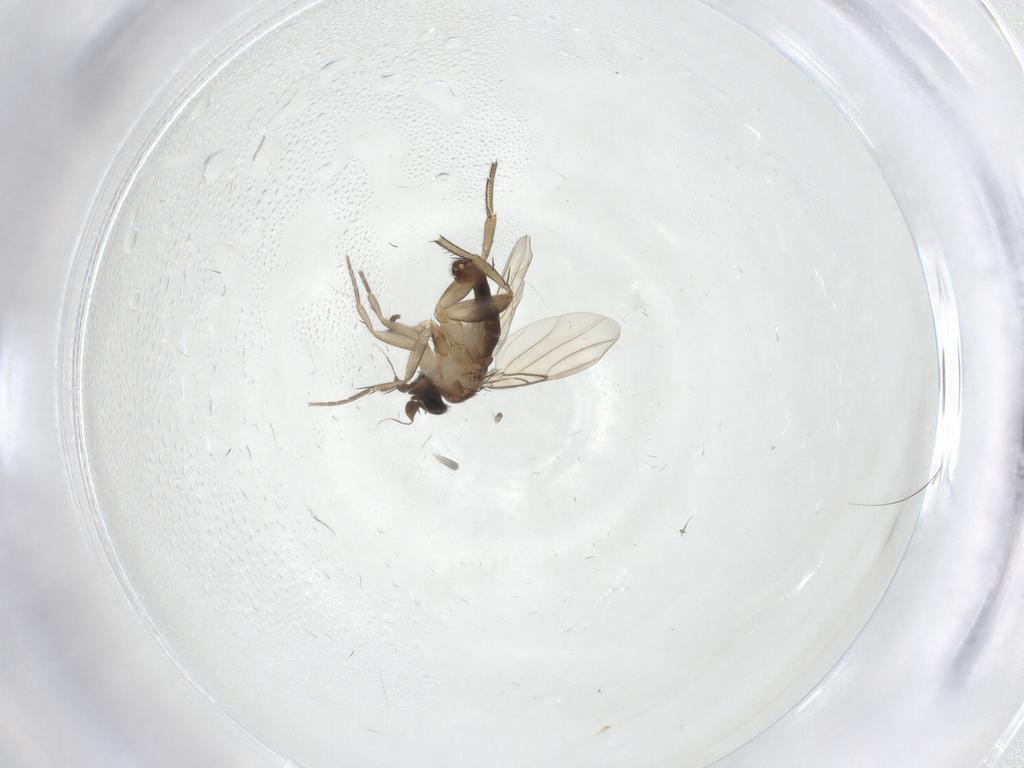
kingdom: Animalia
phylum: Arthropoda
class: Insecta
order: Diptera
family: Phoridae
